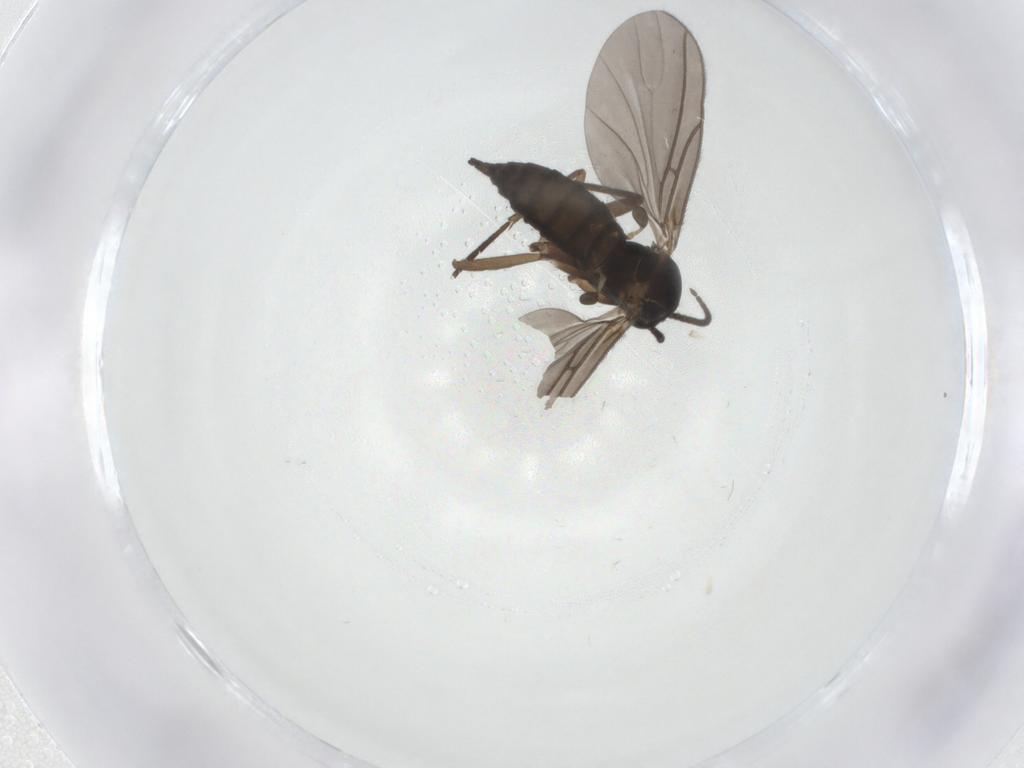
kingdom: Animalia
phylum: Arthropoda
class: Insecta
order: Diptera
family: Sciaridae
